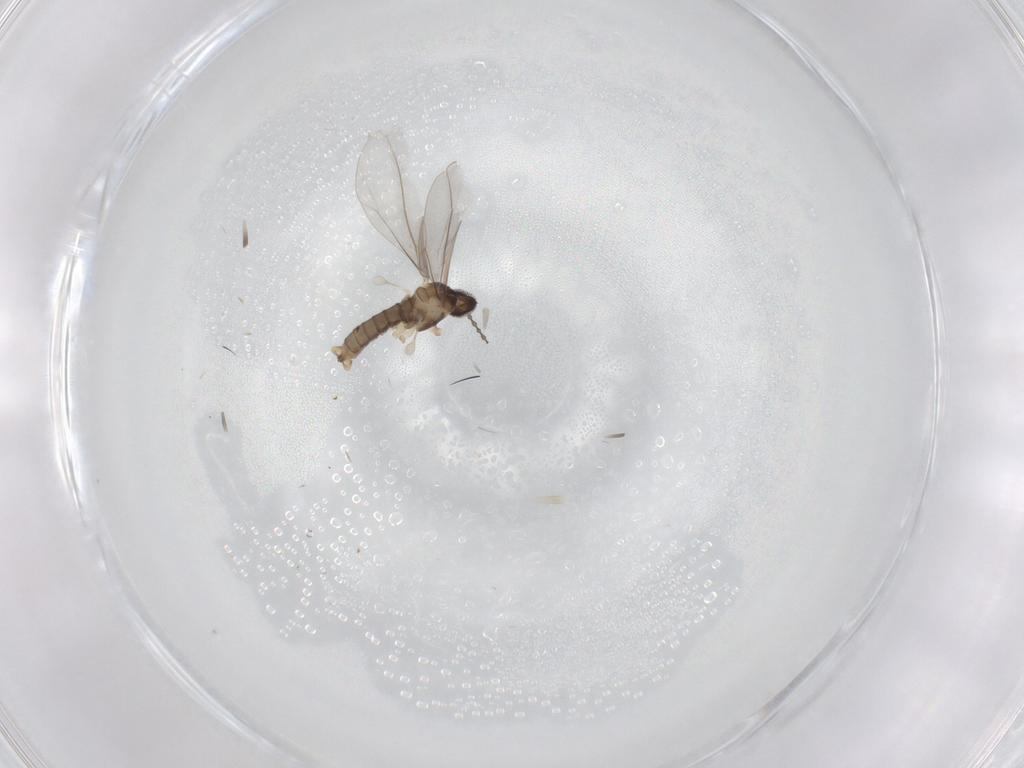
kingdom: Animalia
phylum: Arthropoda
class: Insecta
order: Diptera
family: Cecidomyiidae
